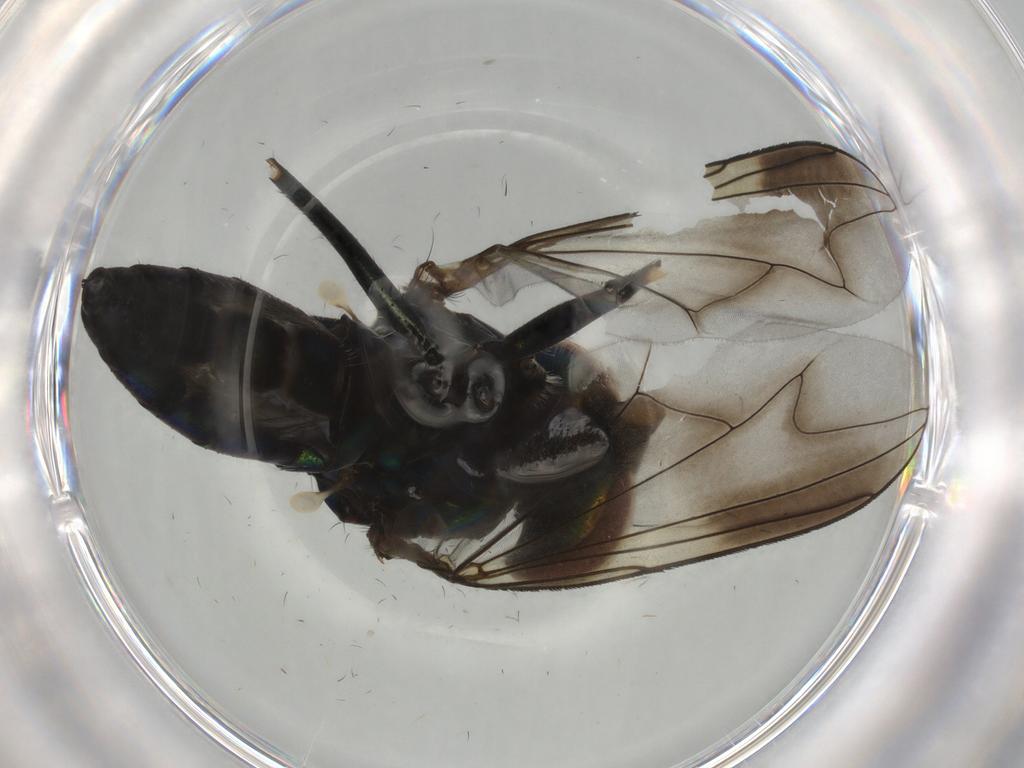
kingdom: Animalia
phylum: Arthropoda
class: Insecta
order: Diptera
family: Dolichopodidae
